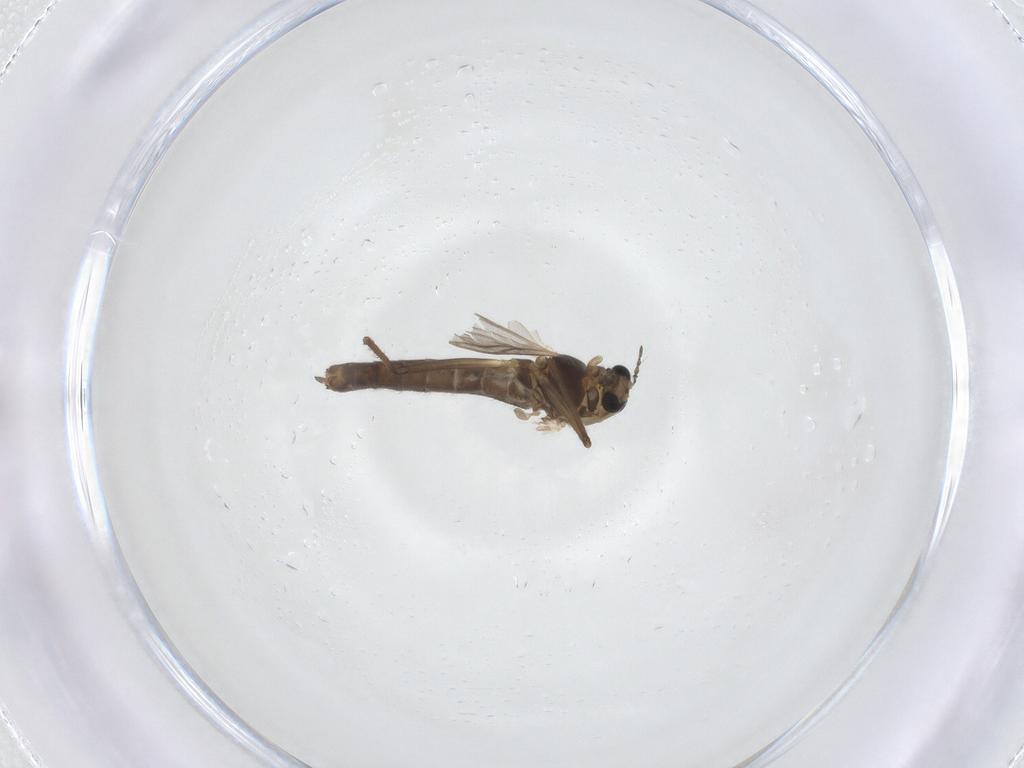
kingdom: Animalia
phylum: Arthropoda
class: Insecta
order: Diptera
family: Chironomidae
